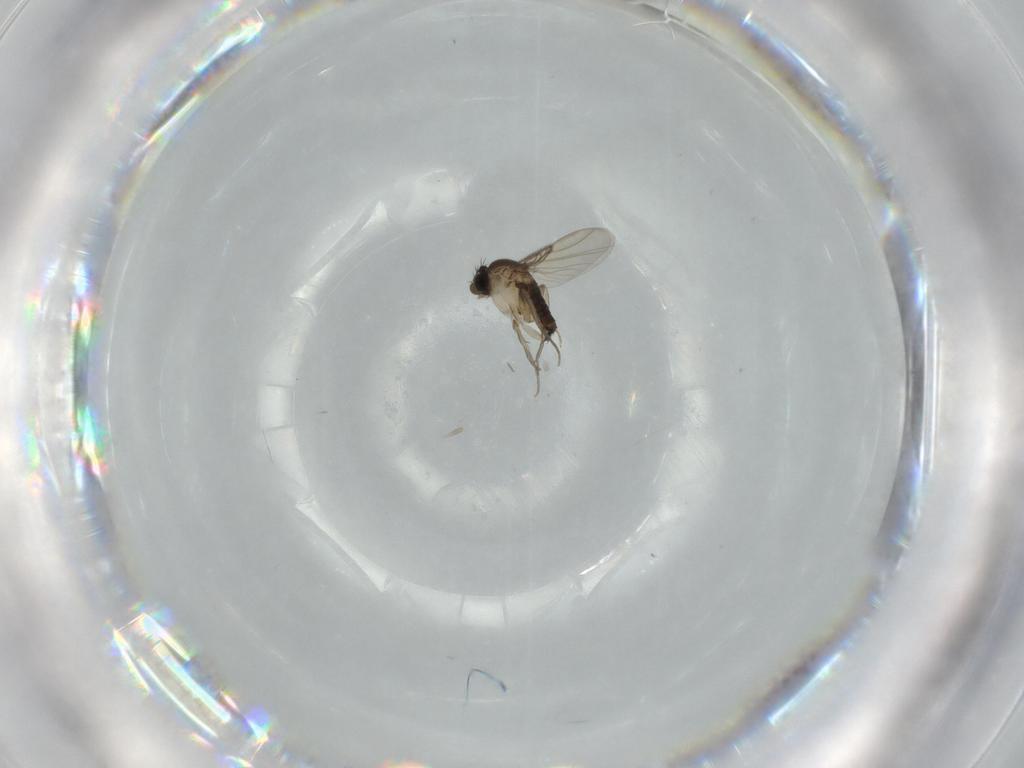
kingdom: Animalia
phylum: Arthropoda
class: Insecta
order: Diptera
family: Phoridae
